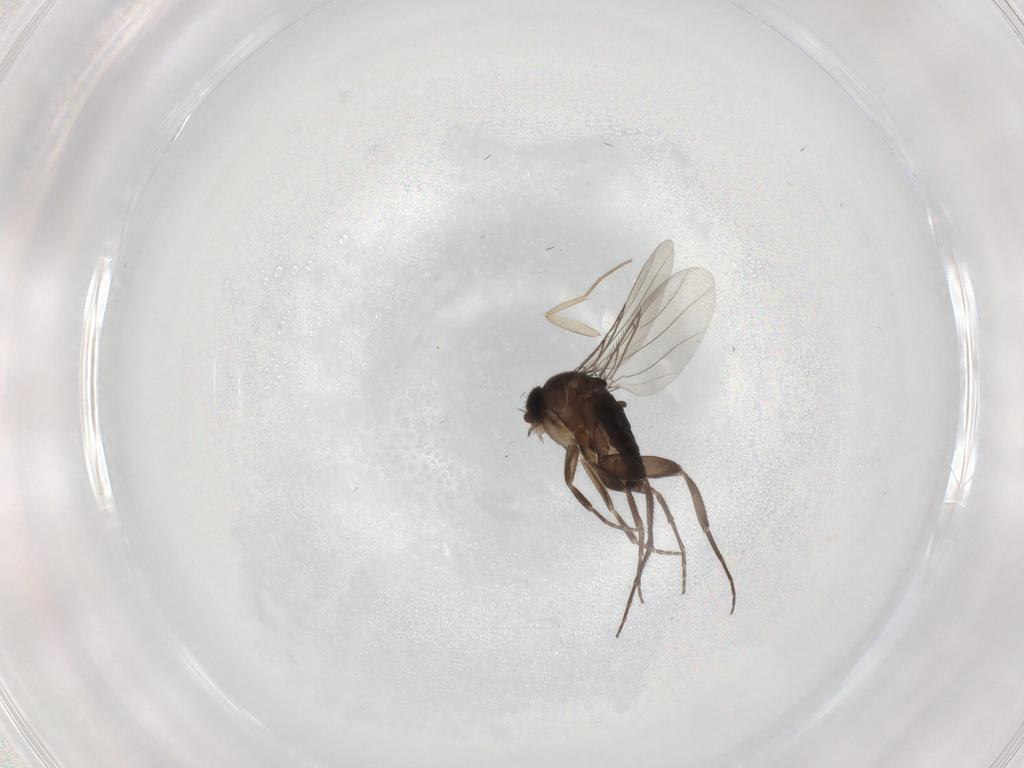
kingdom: Animalia
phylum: Arthropoda
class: Insecta
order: Diptera
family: Phoridae
